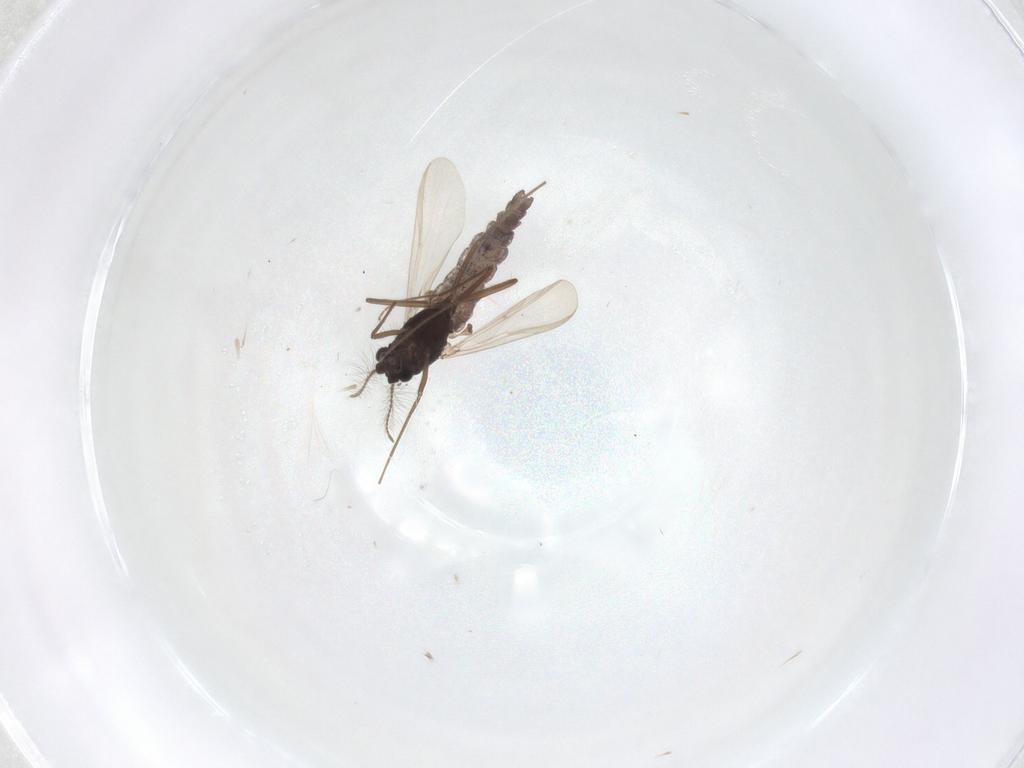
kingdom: Animalia
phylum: Arthropoda
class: Insecta
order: Diptera
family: Chironomidae
